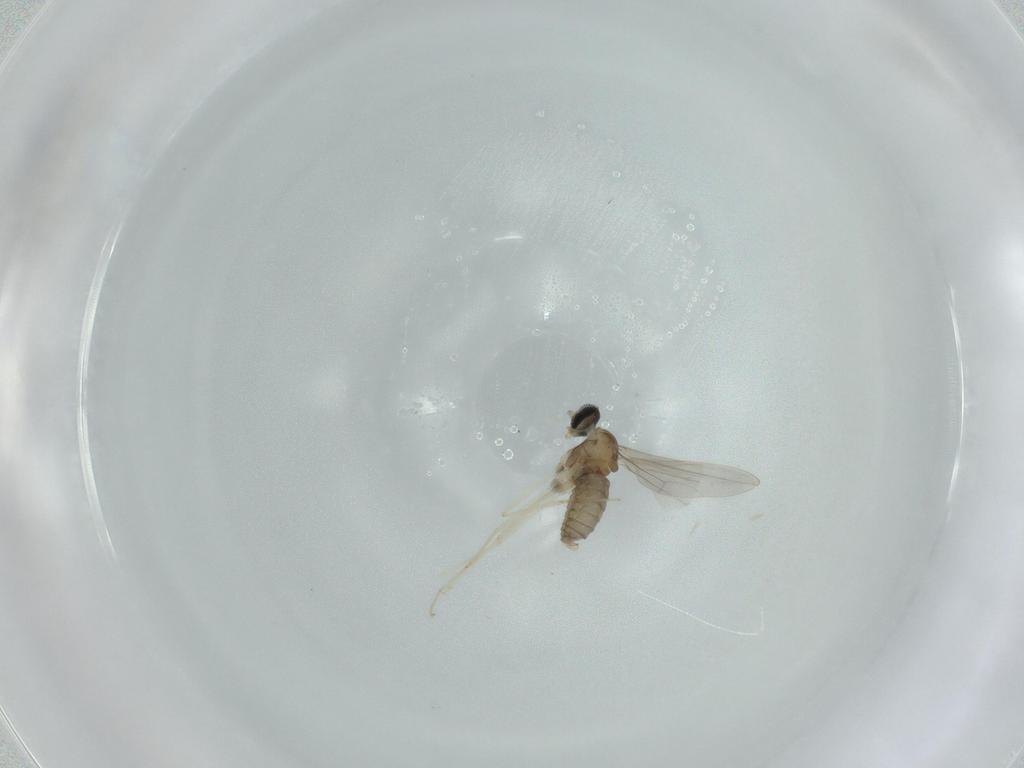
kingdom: Animalia
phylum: Arthropoda
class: Insecta
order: Diptera
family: Cecidomyiidae
